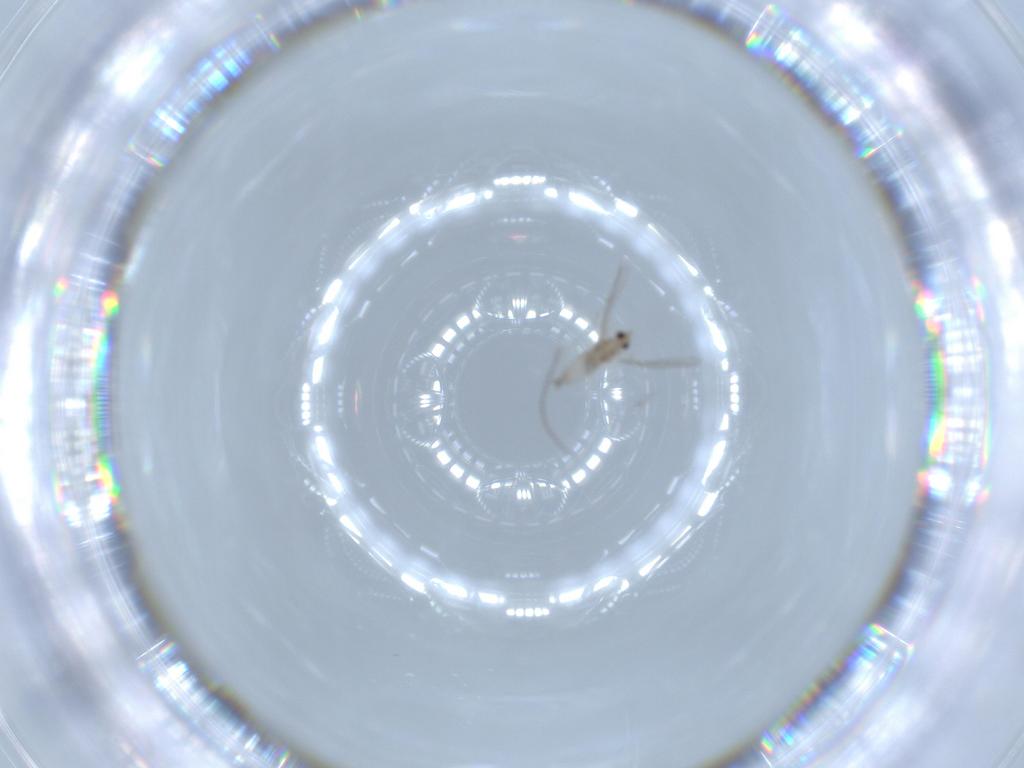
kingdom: Animalia
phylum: Arthropoda
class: Insecta
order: Diptera
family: Cecidomyiidae
